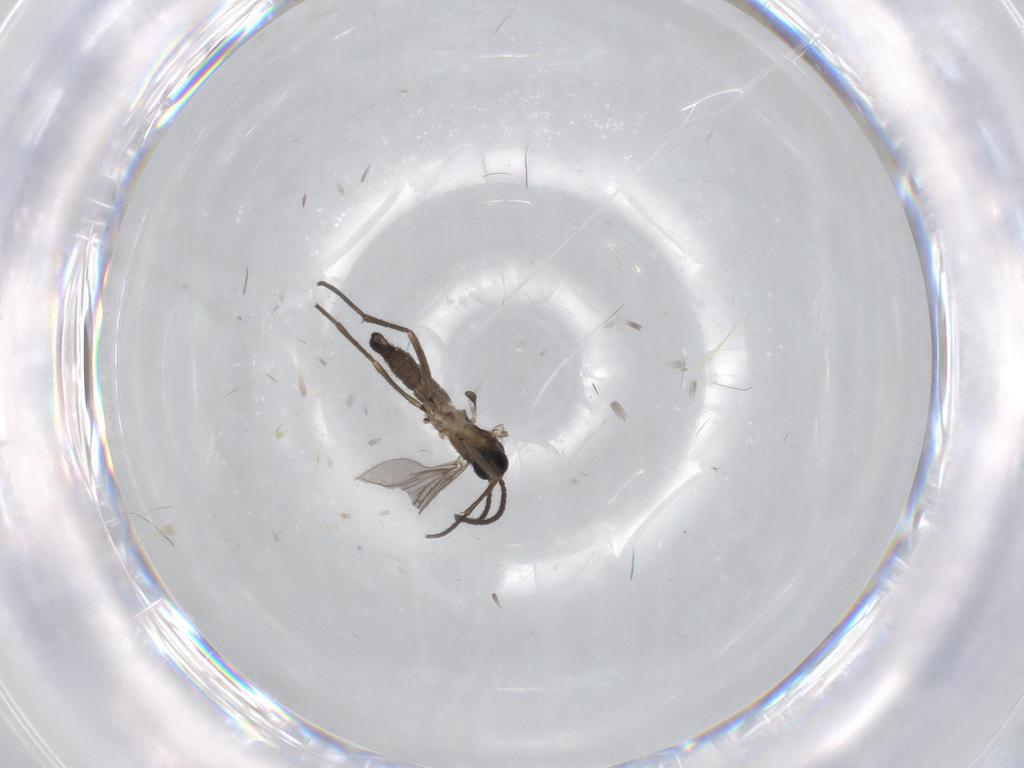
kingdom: Animalia
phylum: Arthropoda
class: Insecta
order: Diptera
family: Sciaridae
